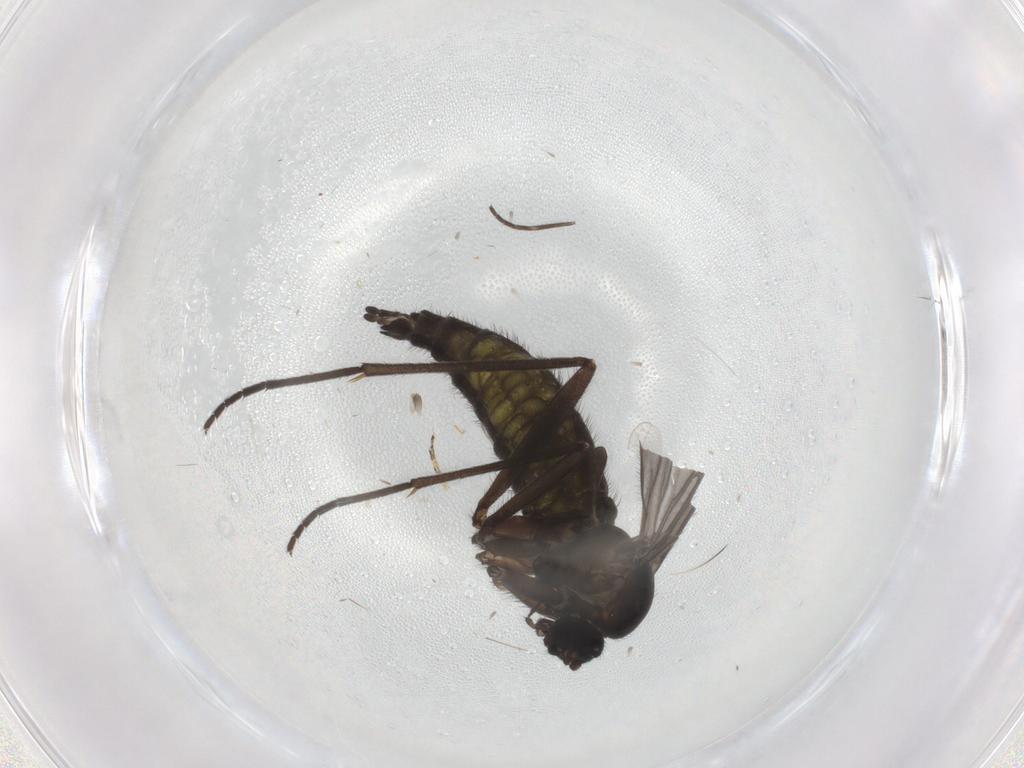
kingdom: Animalia
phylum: Arthropoda
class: Insecta
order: Diptera
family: Sciaridae
